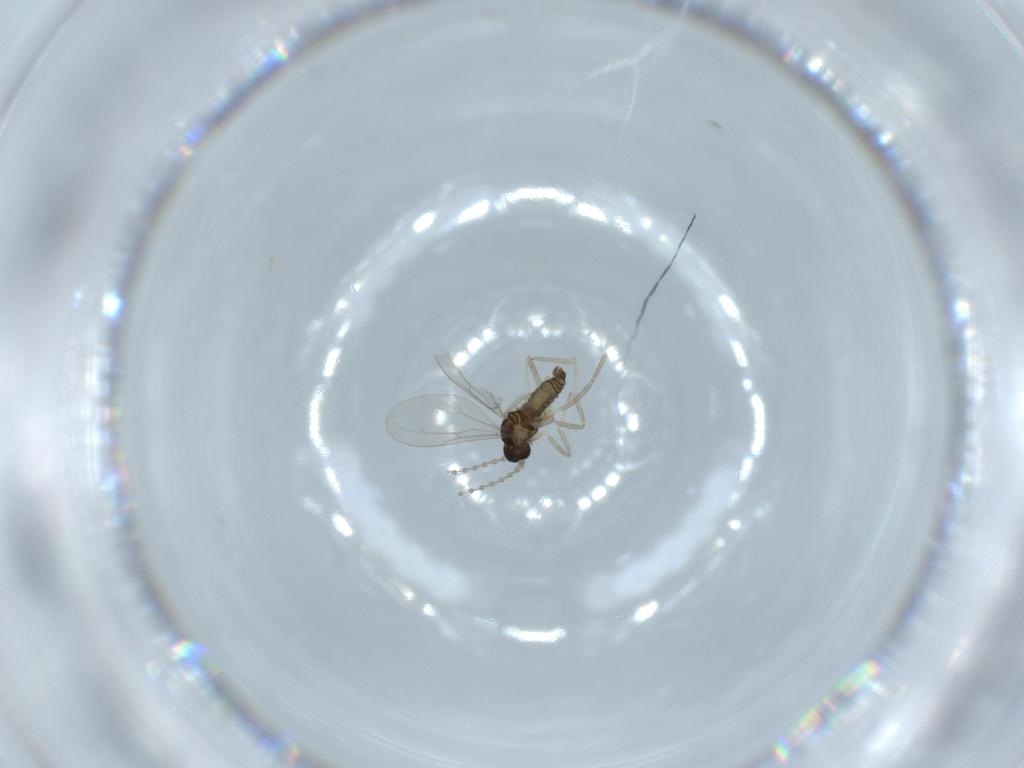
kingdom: Animalia
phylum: Arthropoda
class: Insecta
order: Diptera
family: Cecidomyiidae
